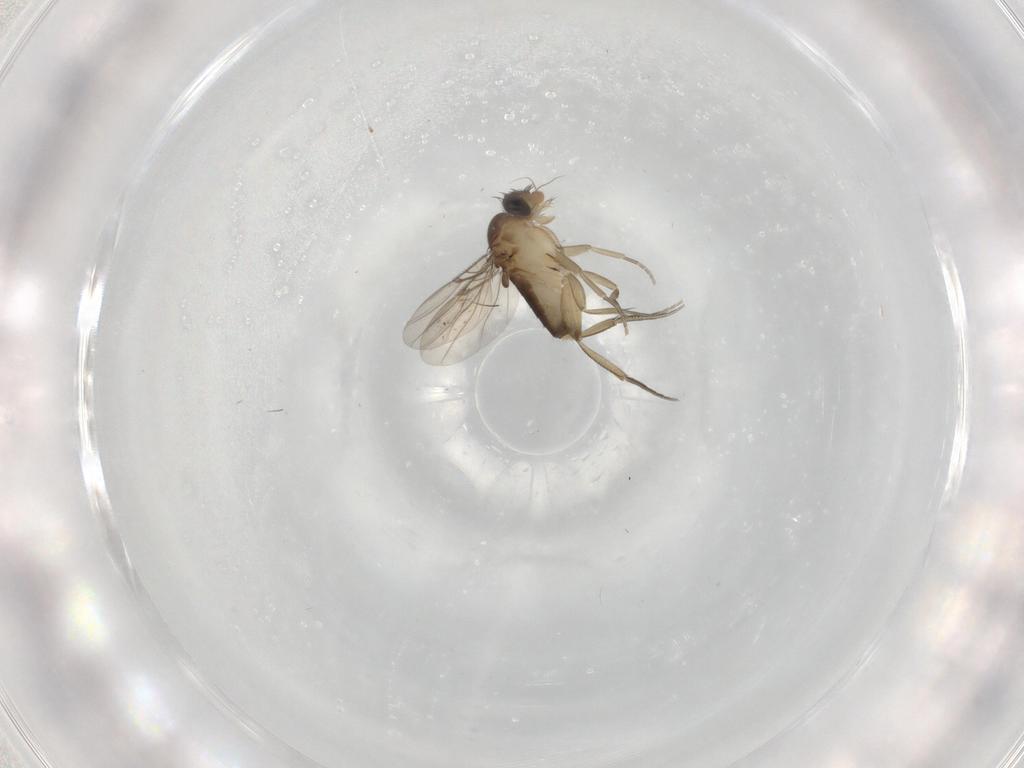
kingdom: Animalia
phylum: Arthropoda
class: Insecta
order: Diptera
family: Phoridae
